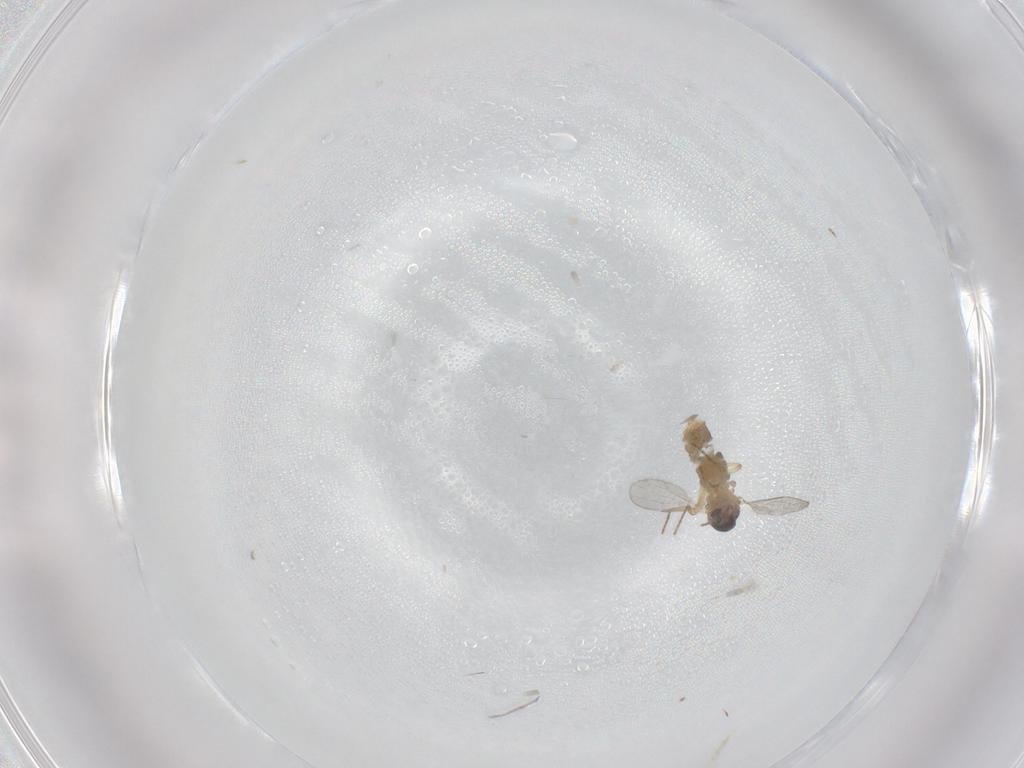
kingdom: Animalia
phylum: Arthropoda
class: Insecta
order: Diptera
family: Ceratopogonidae
